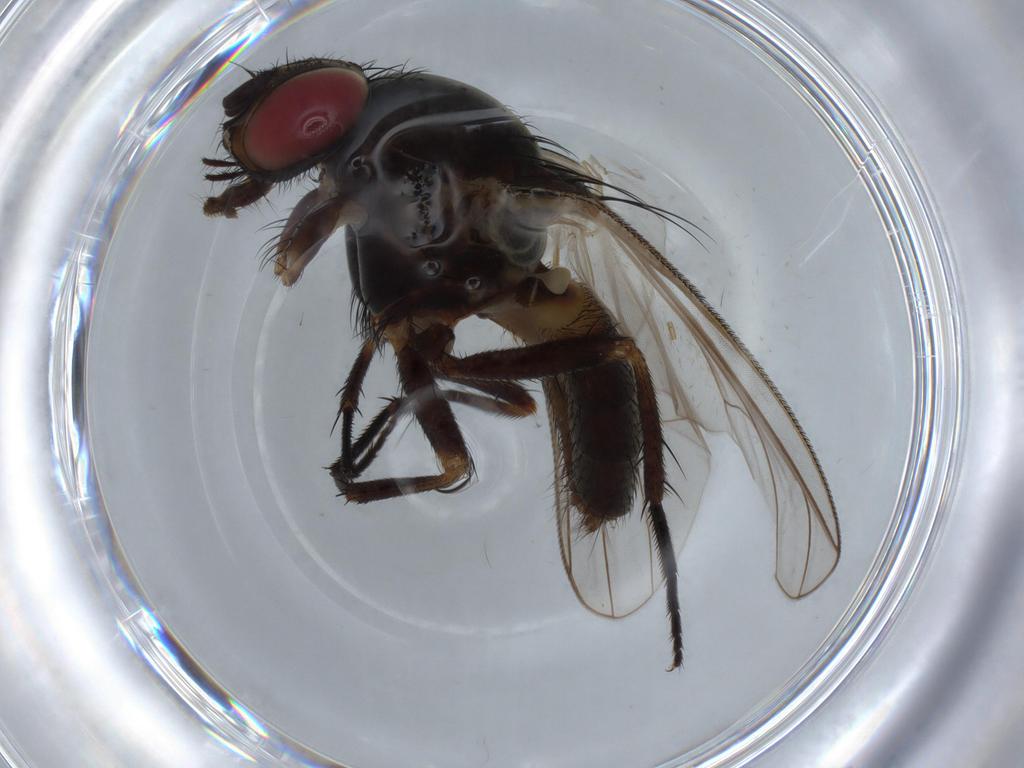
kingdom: Animalia
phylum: Arthropoda
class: Insecta
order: Diptera
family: Fannia
